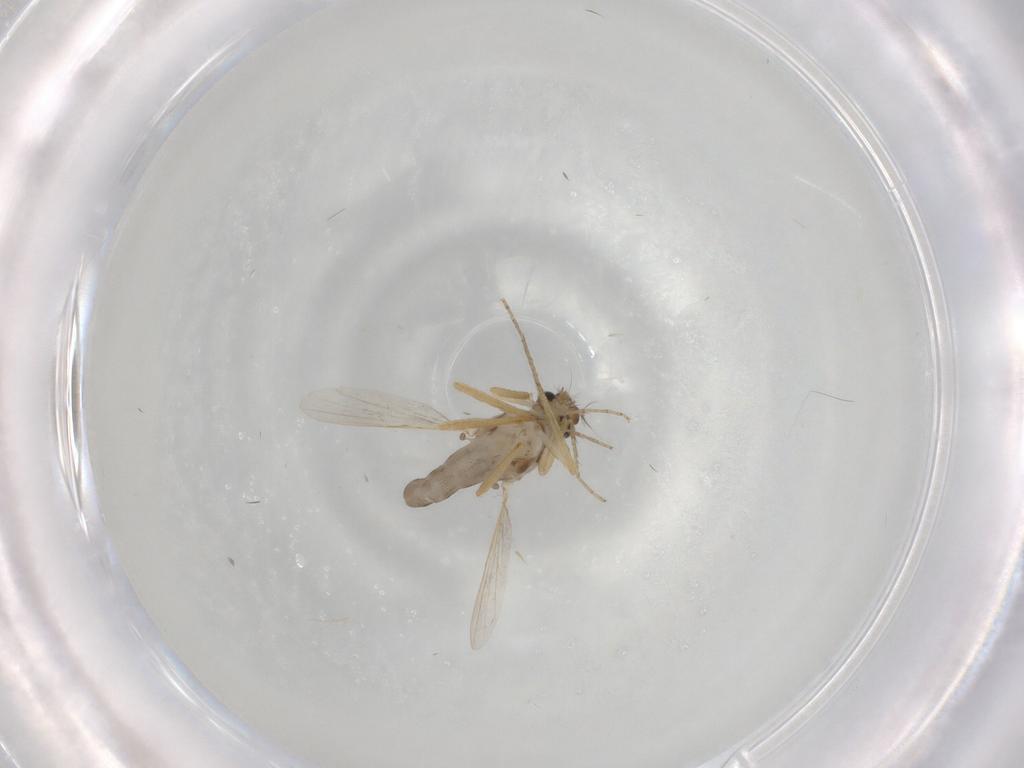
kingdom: Animalia
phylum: Arthropoda
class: Insecta
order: Diptera
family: Ceratopogonidae
